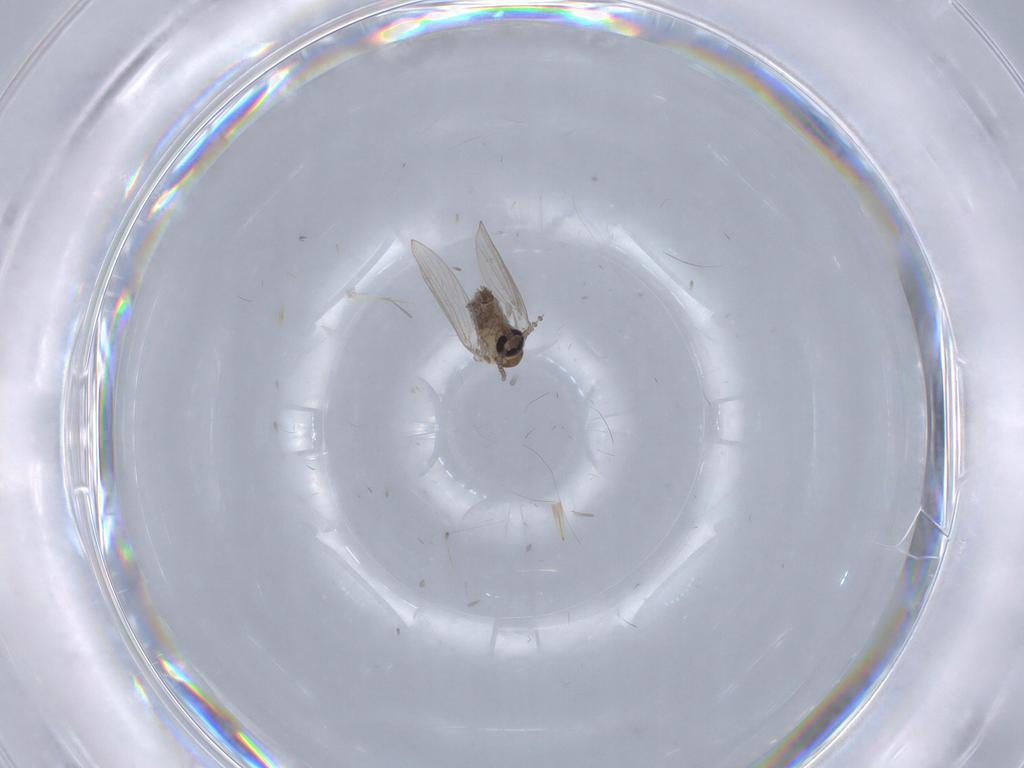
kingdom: Animalia
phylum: Arthropoda
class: Insecta
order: Diptera
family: Psychodidae
